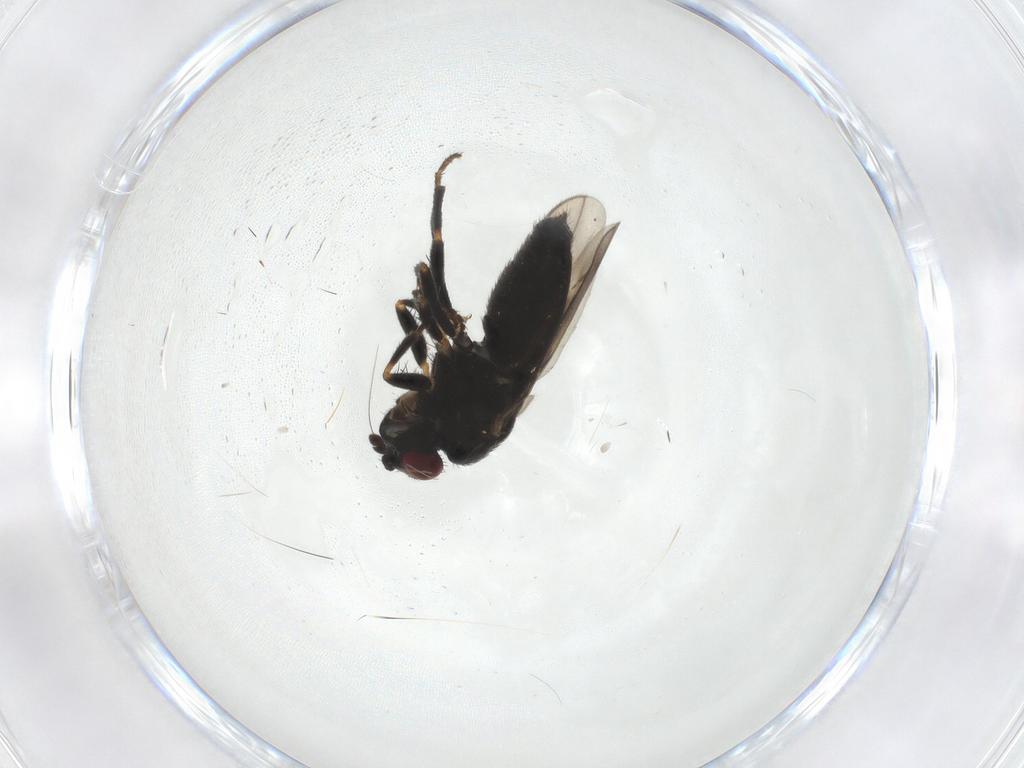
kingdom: Animalia
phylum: Arthropoda
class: Insecta
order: Diptera
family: Sphaeroceridae
